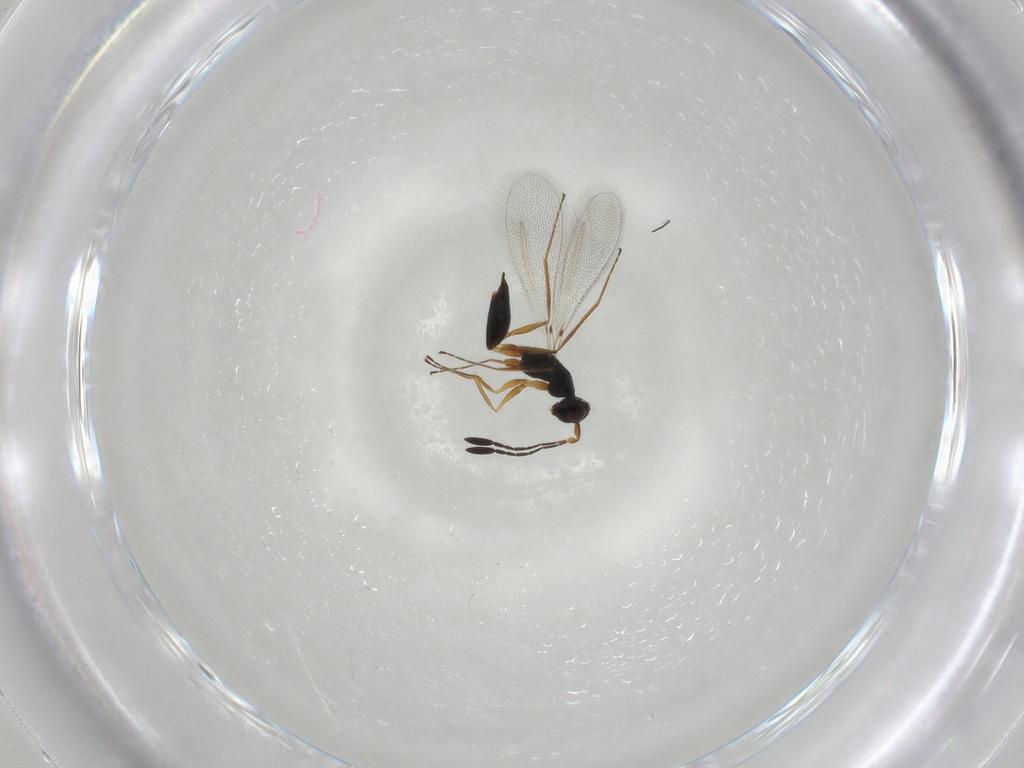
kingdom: Animalia
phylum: Arthropoda
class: Insecta
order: Hymenoptera
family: Mymaridae
